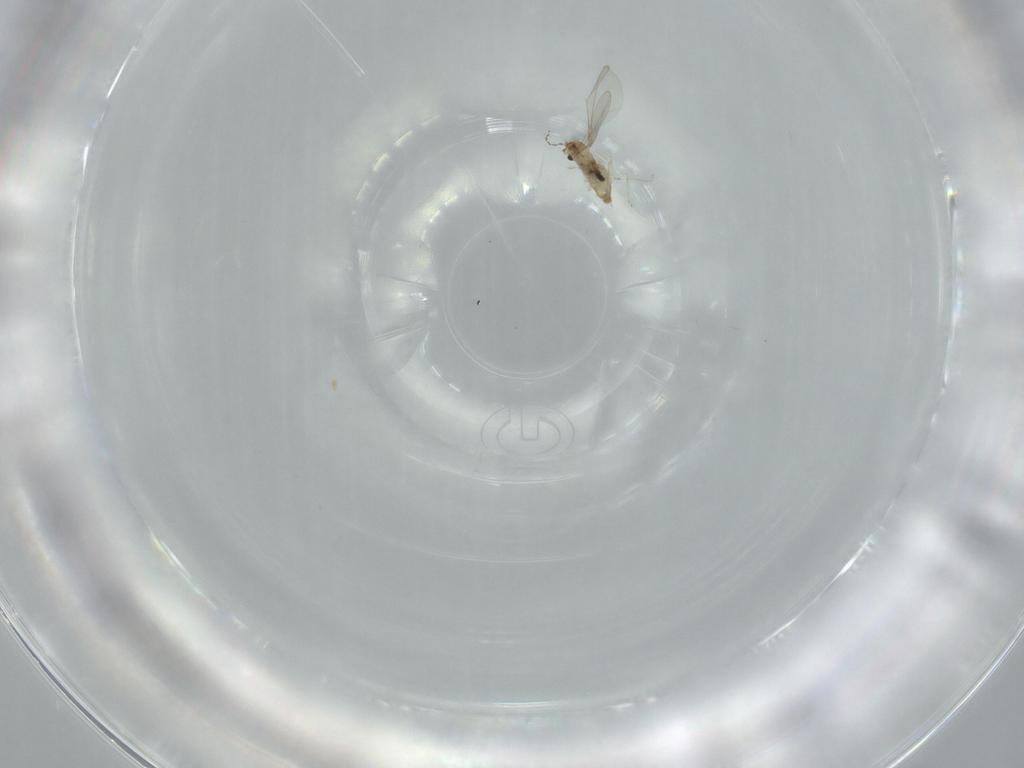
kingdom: Animalia
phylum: Arthropoda
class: Insecta
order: Diptera
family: Cecidomyiidae
